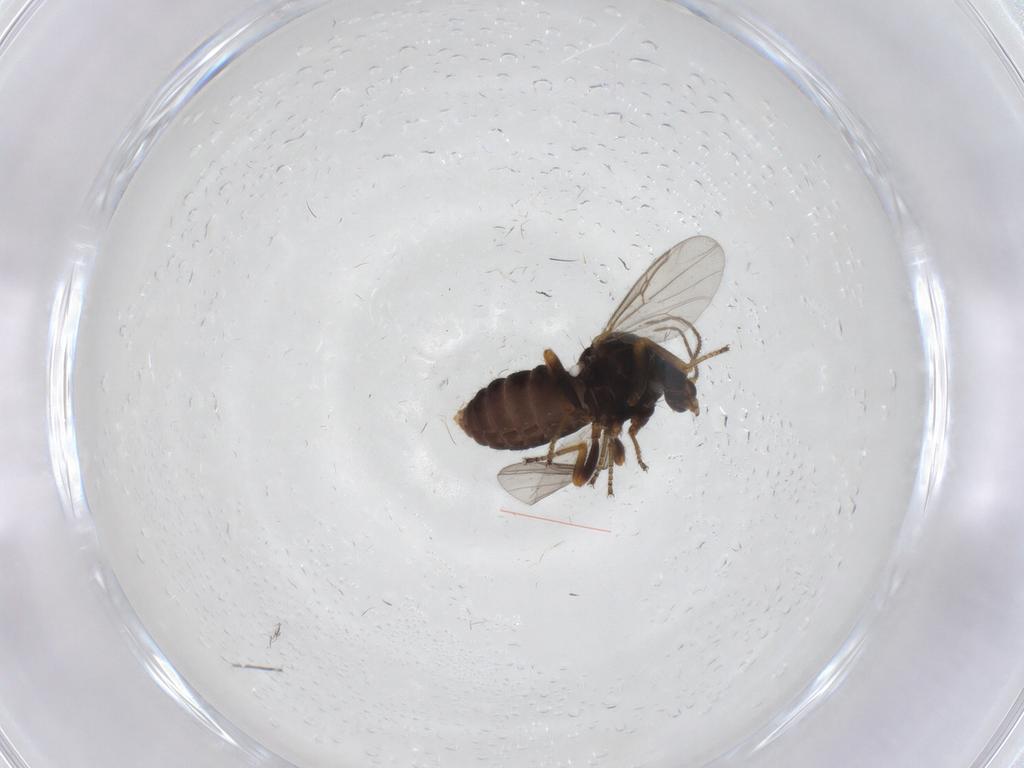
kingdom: Animalia
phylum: Arthropoda
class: Insecta
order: Diptera
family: Ceratopogonidae
